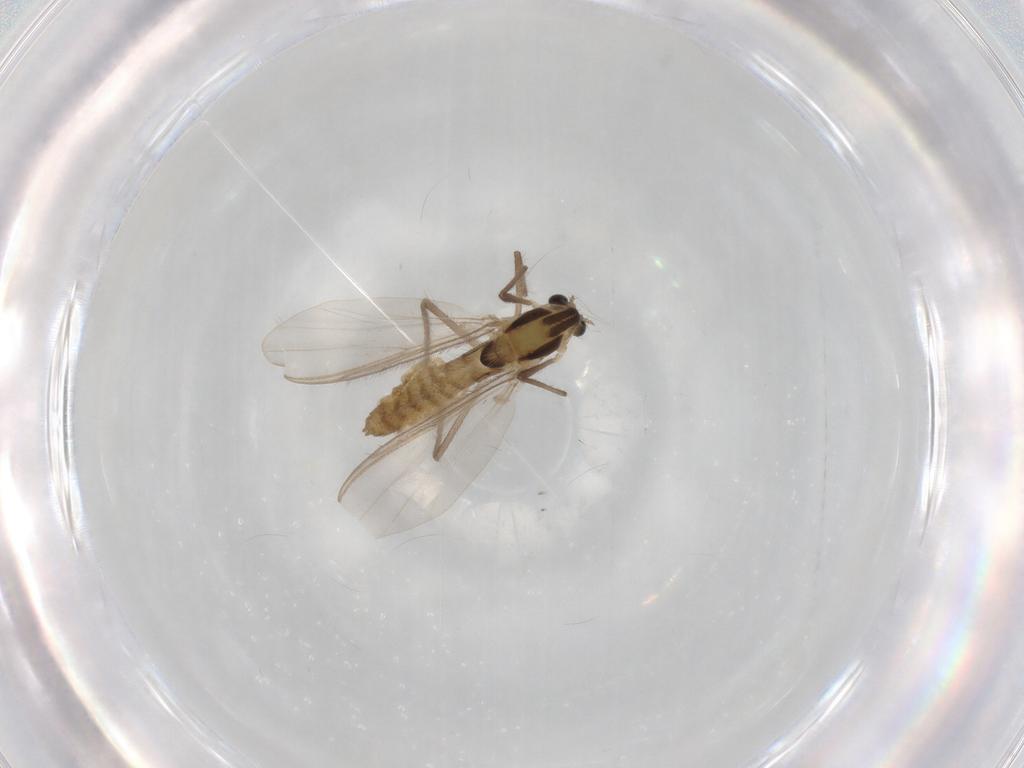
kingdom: Animalia
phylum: Arthropoda
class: Insecta
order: Diptera
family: Chironomidae
